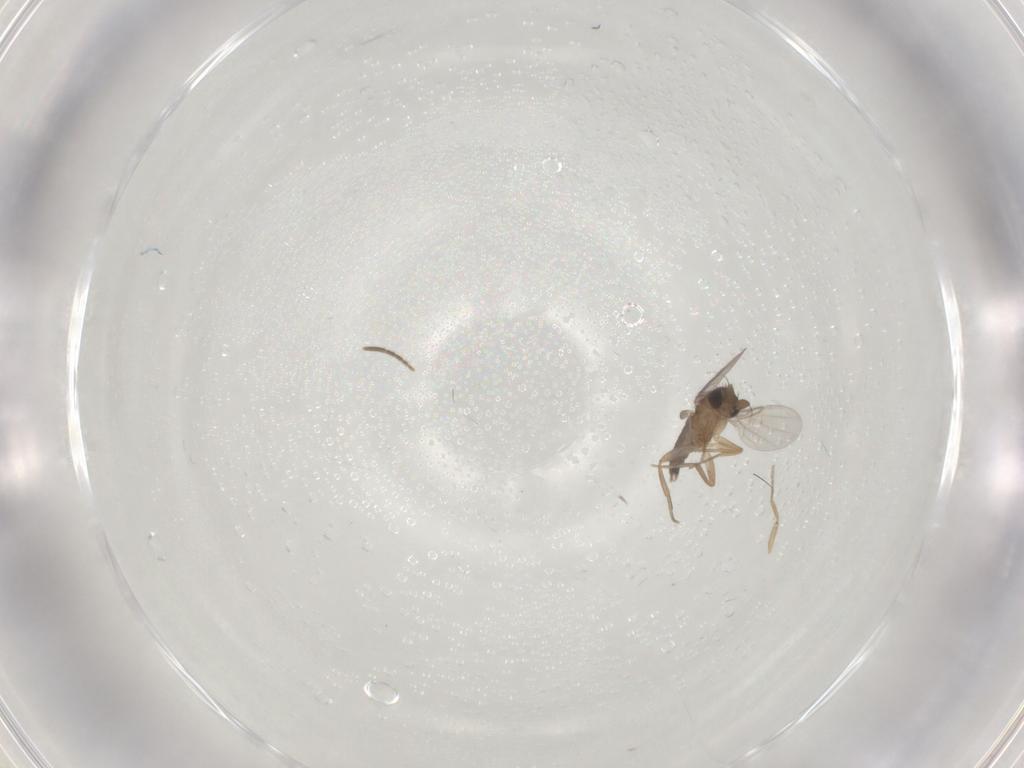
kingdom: Animalia
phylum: Arthropoda
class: Insecta
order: Diptera
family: Phoridae
